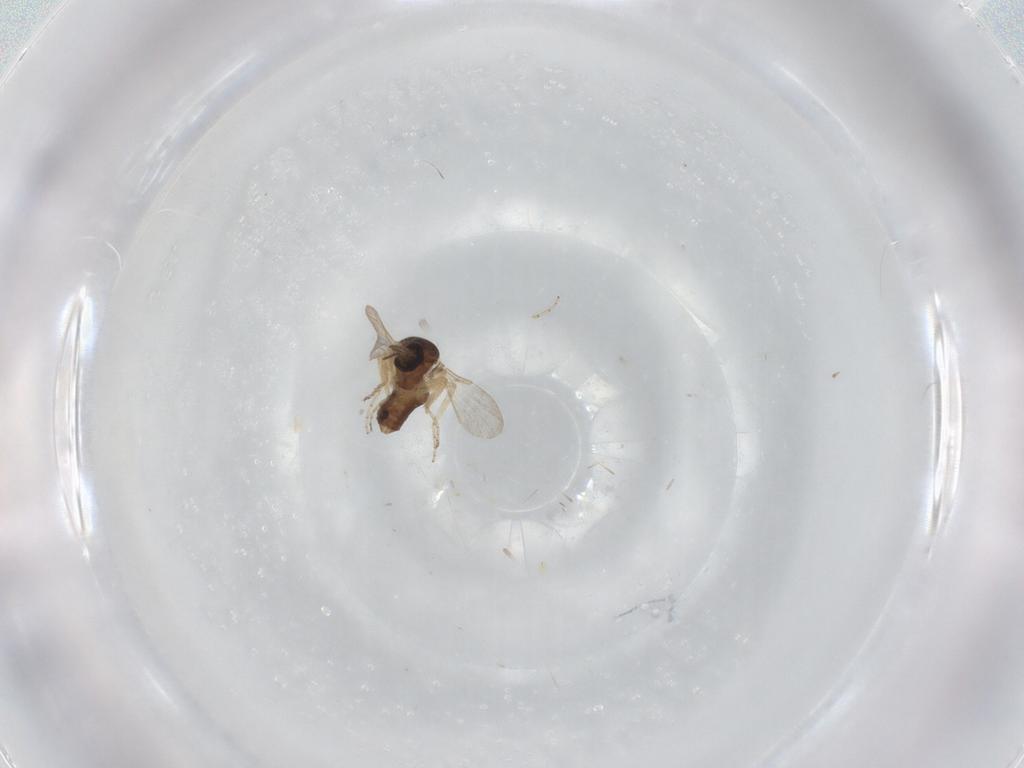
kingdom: Animalia
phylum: Arthropoda
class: Insecta
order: Diptera
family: Ceratopogonidae
